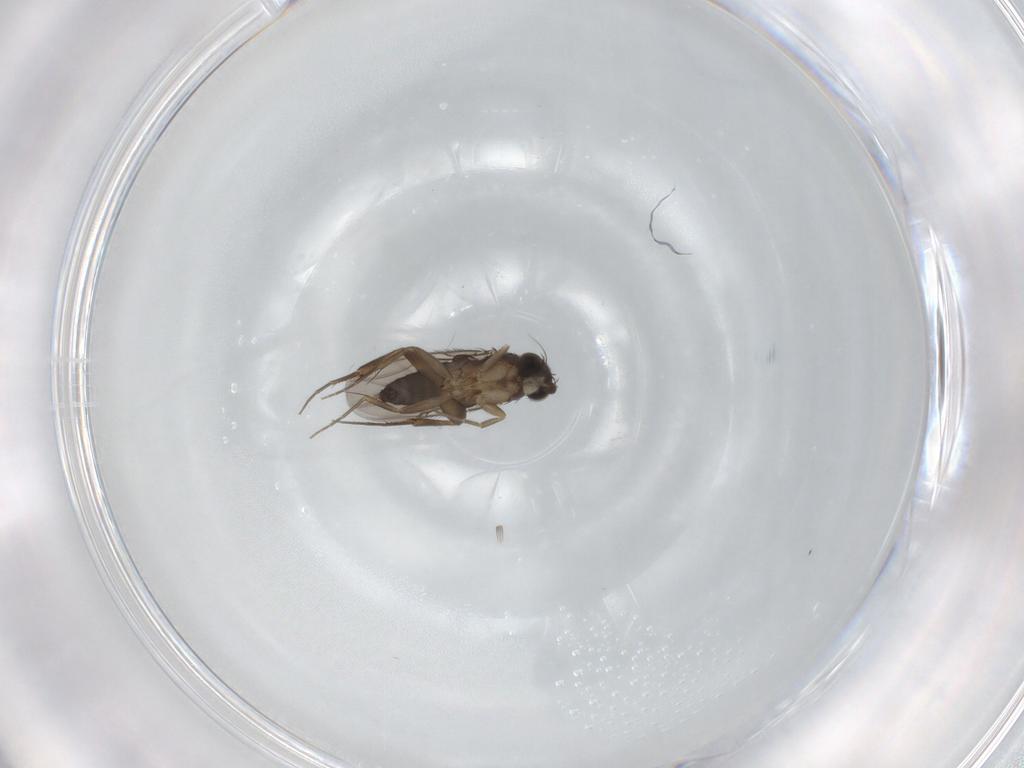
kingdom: Animalia
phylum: Arthropoda
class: Insecta
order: Diptera
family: Phoridae
